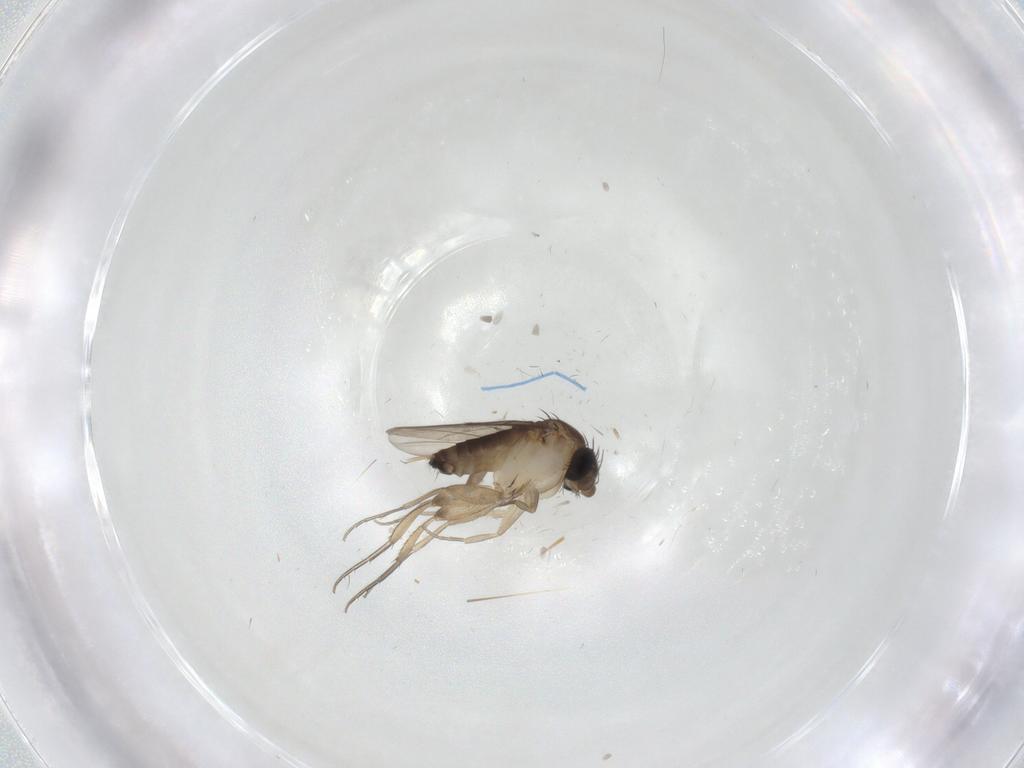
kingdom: Animalia
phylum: Arthropoda
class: Insecta
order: Diptera
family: Phoridae
